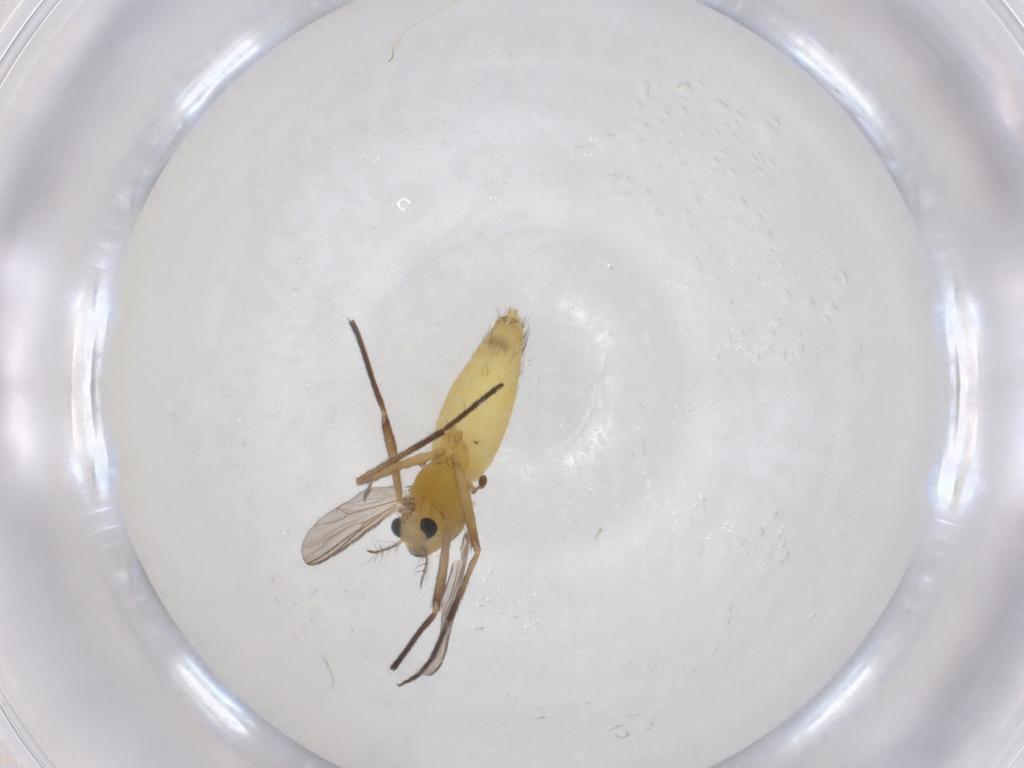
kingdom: Animalia
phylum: Arthropoda
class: Insecta
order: Diptera
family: Chironomidae
